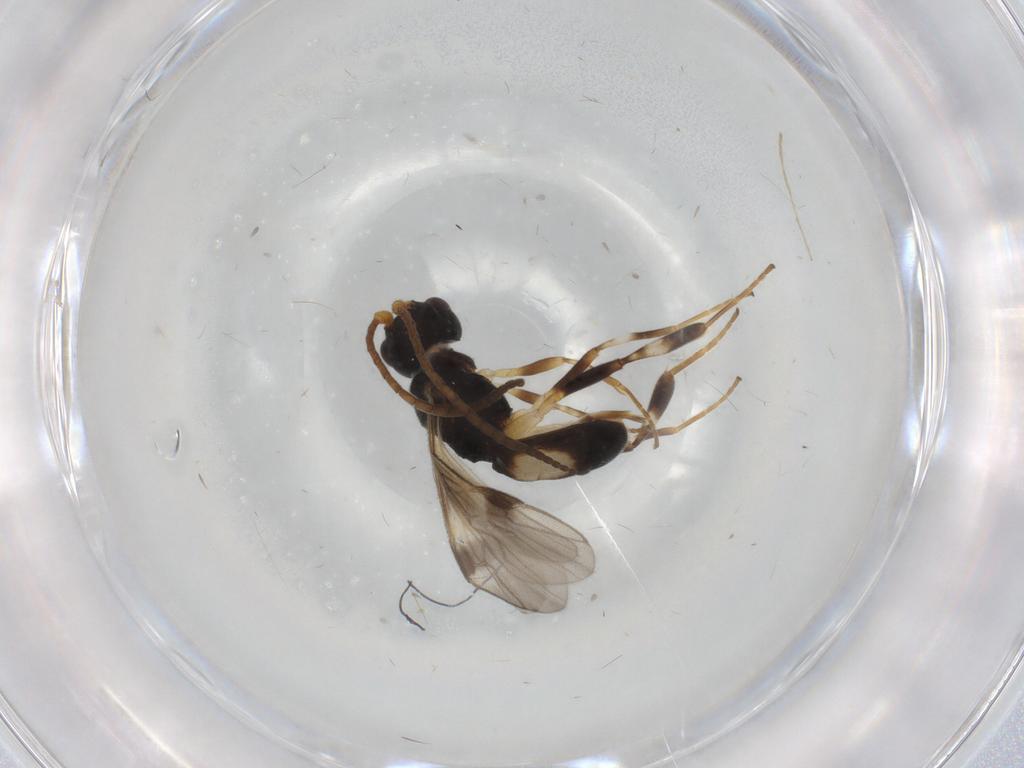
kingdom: Animalia
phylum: Arthropoda
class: Insecta
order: Hymenoptera
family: Braconidae
